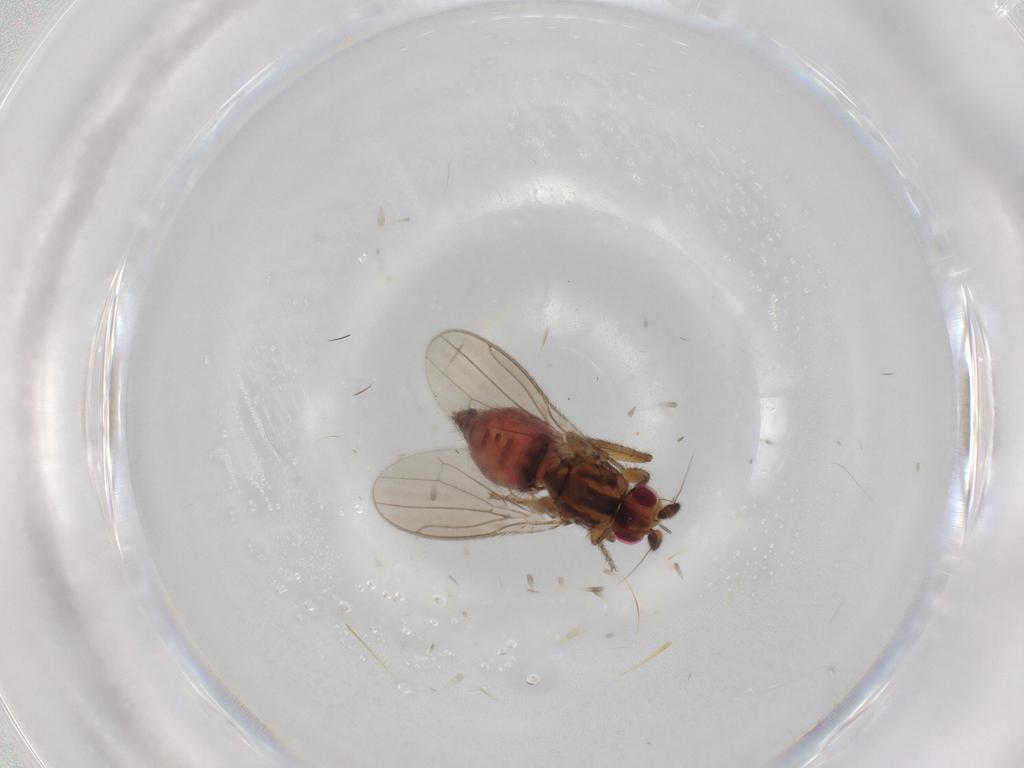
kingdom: Animalia
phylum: Arthropoda
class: Insecta
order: Diptera
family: Sphaeroceridae
